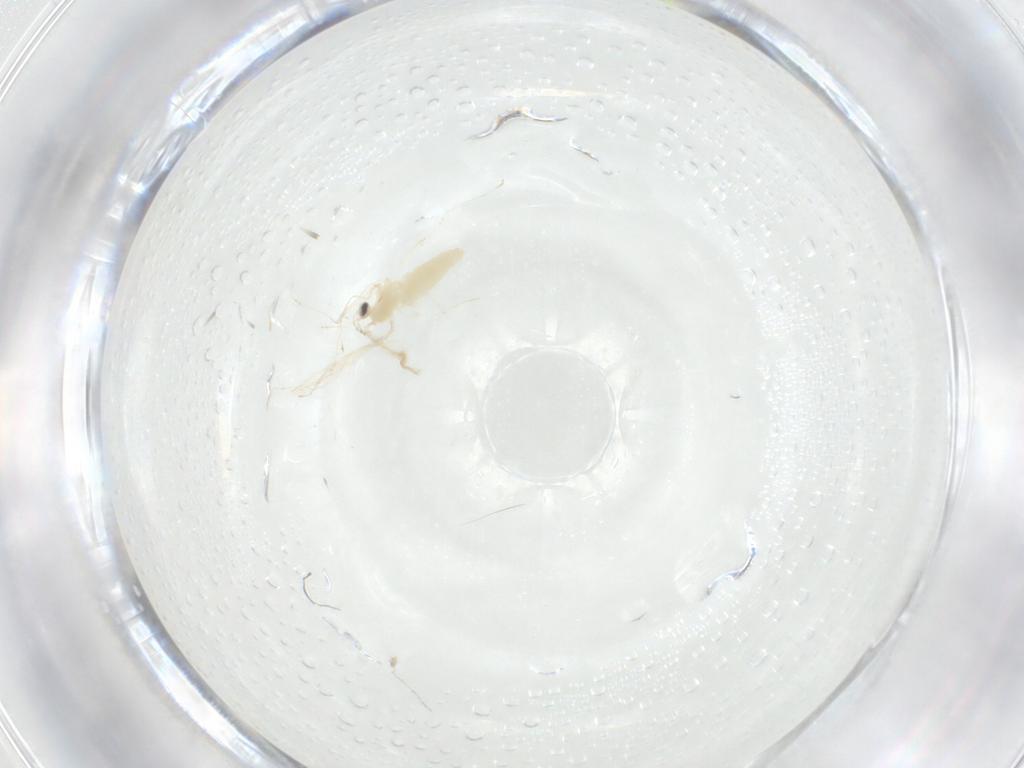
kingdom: Animalia
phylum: Arthropoda
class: Insecta
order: Diptera
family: Cecidomyiidae
